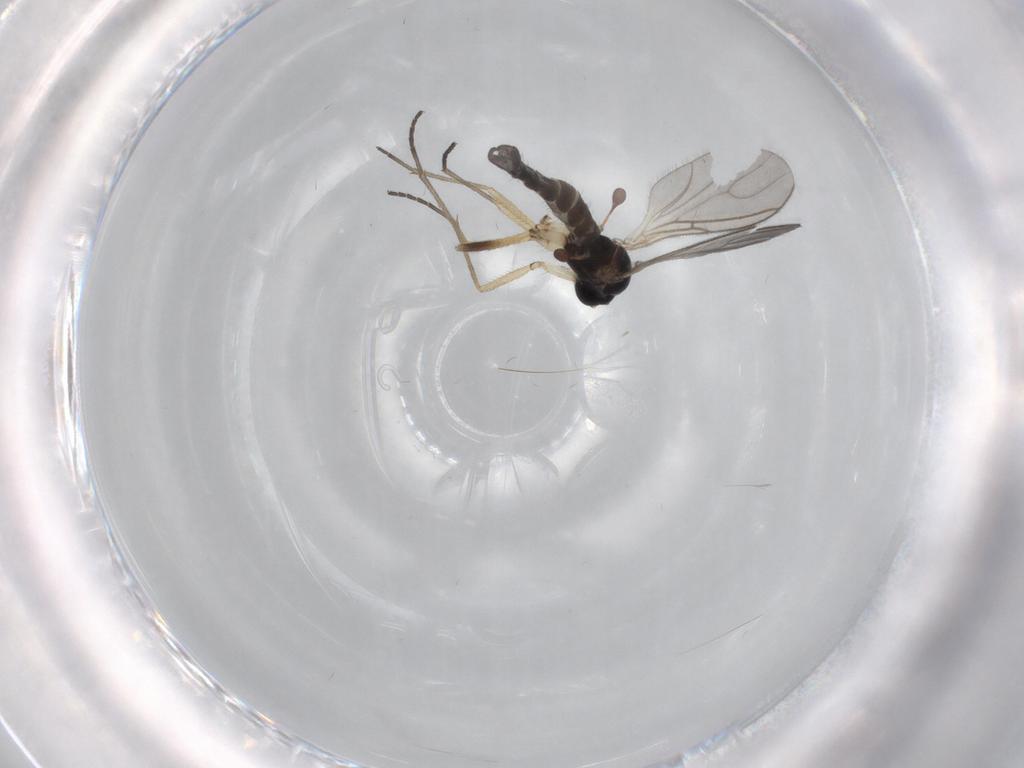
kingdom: Animalia
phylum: Arthropoda
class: Insecta
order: Diptera
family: Sciaridae
